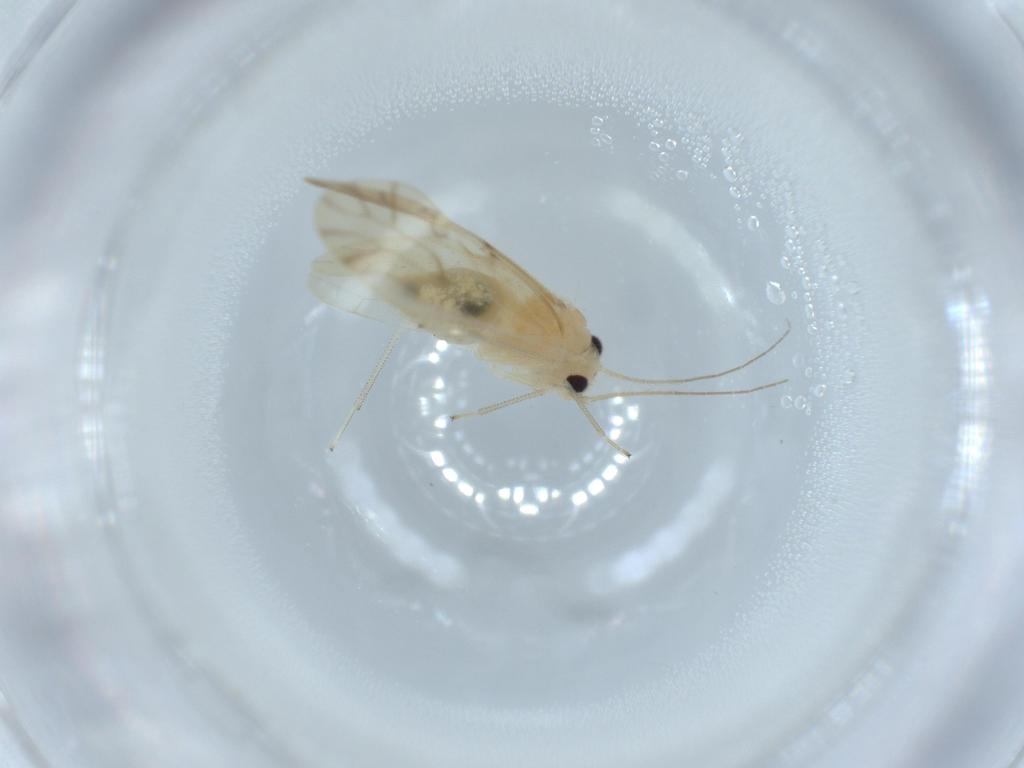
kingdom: Animalia
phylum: Arthropoda
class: Insecta
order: Psocodea
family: Caeciliusidae
